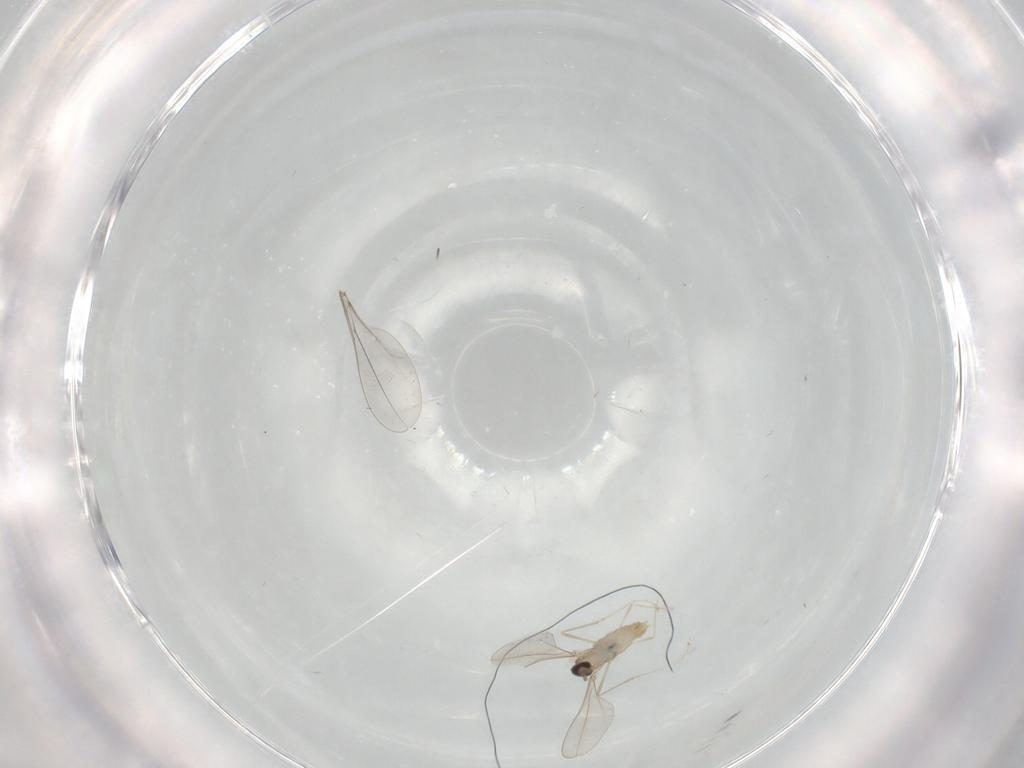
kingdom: Animalia
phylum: Arthropoda
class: Insecta
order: Diptera
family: Cecidomyiidae
